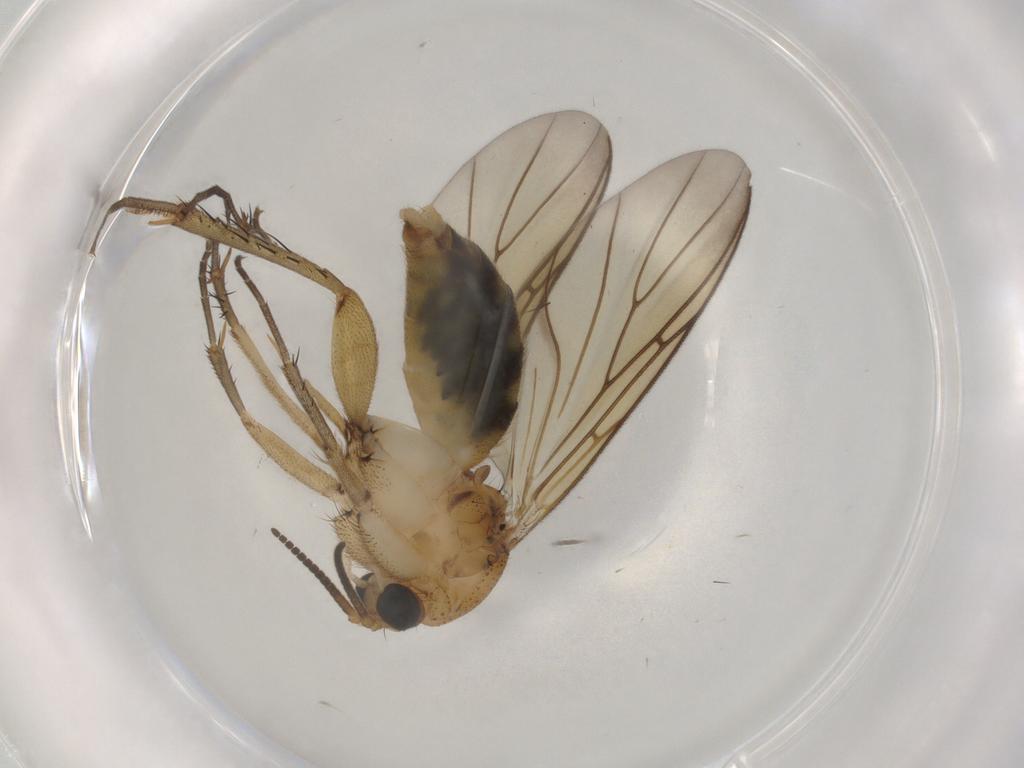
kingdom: Animalia
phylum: Arthropoda
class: Insecta
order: Diptera
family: Mycetophilidae
